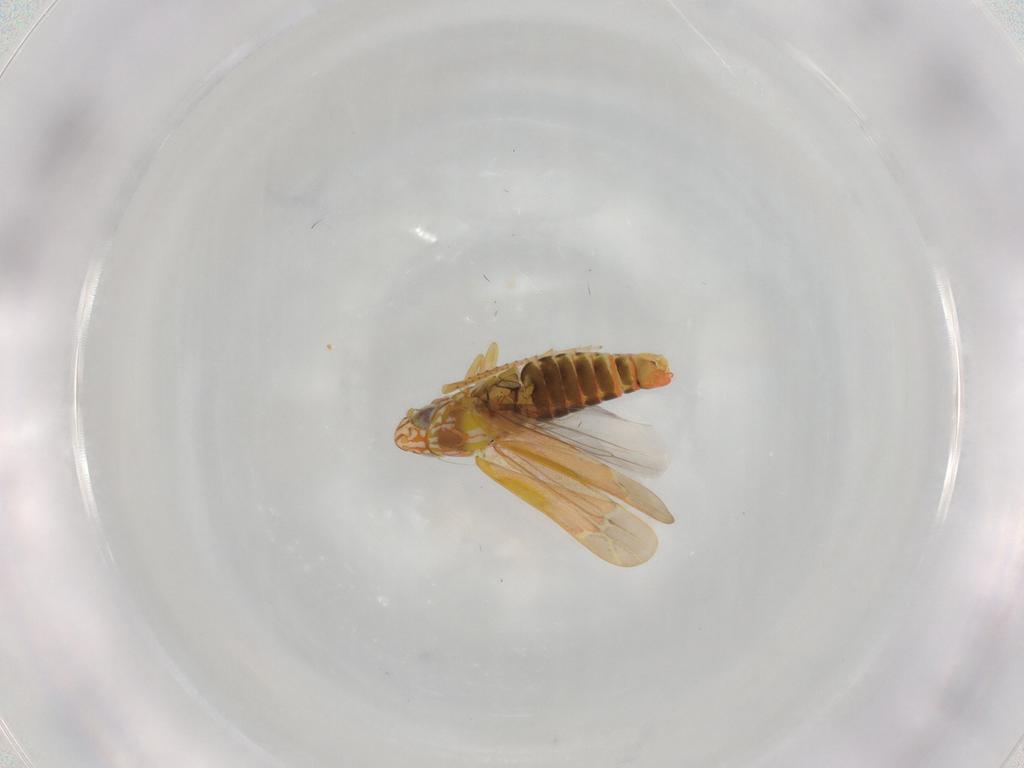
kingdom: Animalia
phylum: Arthropoda
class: Insecta
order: Hemiptera
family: Cicadellidae
